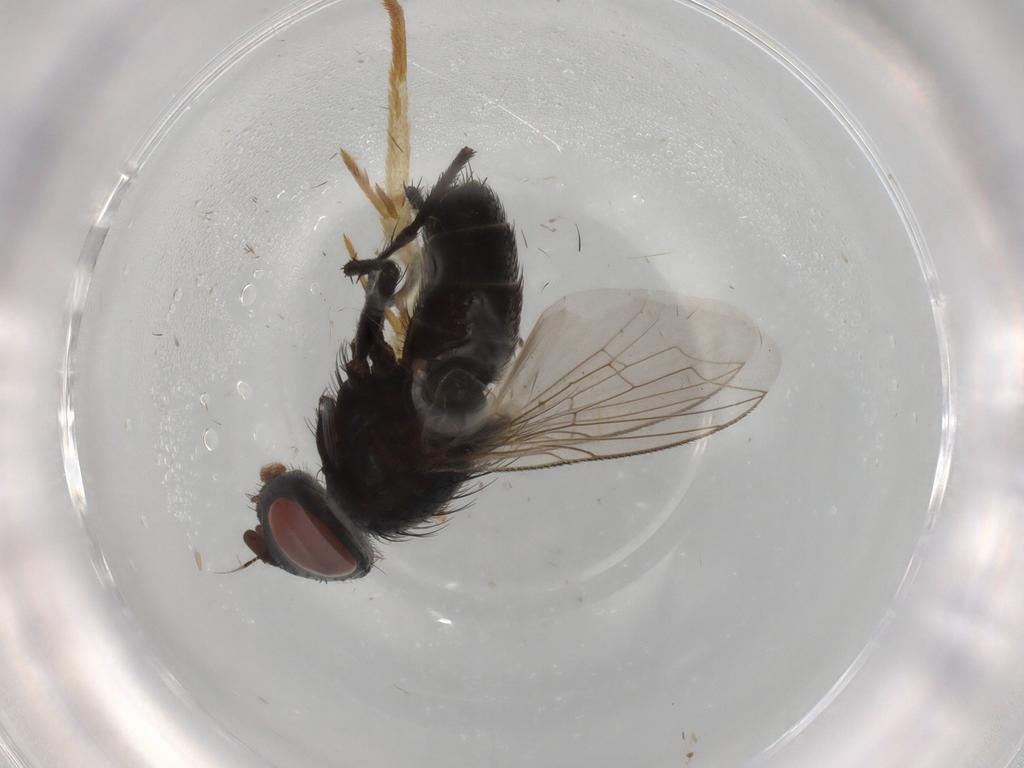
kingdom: Animalia
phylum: Arthropoda
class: Insecta
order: Diptera
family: Sarcophagidae
